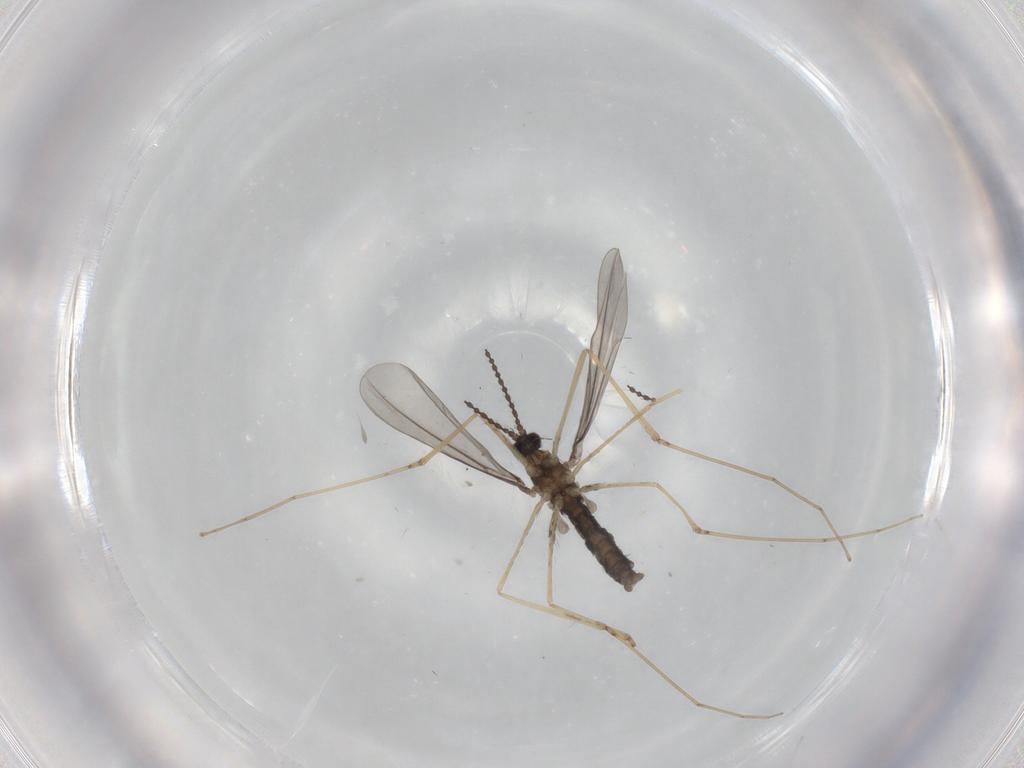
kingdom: Animalia
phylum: Arthropoda
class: Insecta
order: Diptera
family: Cecidomyiidae
